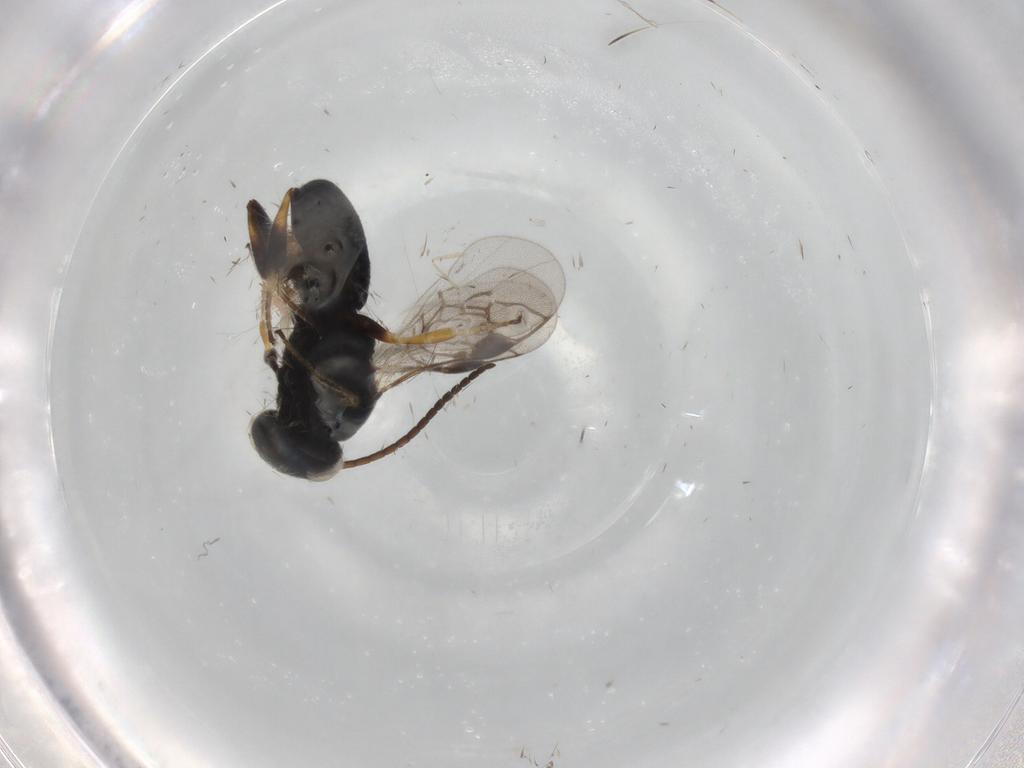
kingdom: Animalia
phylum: Arthropoda
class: Insecta
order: Hymenoptera
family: Braconidae
